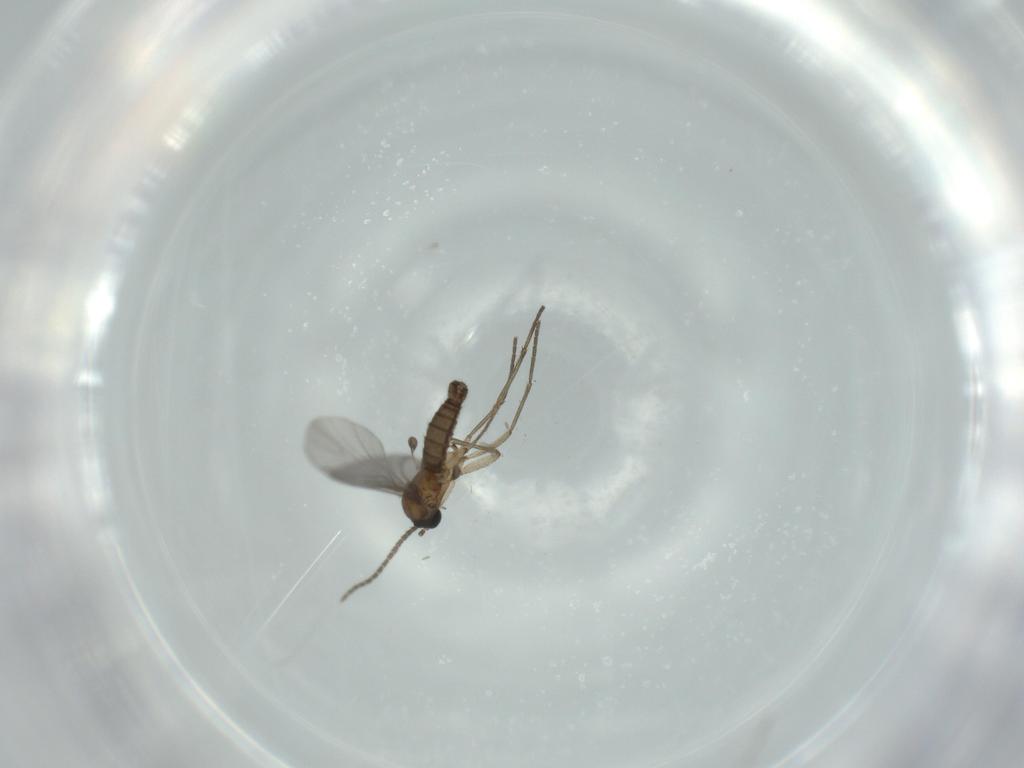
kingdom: Animalia
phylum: Arthropoda
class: Insecta
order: Diptera
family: Sciaridae
